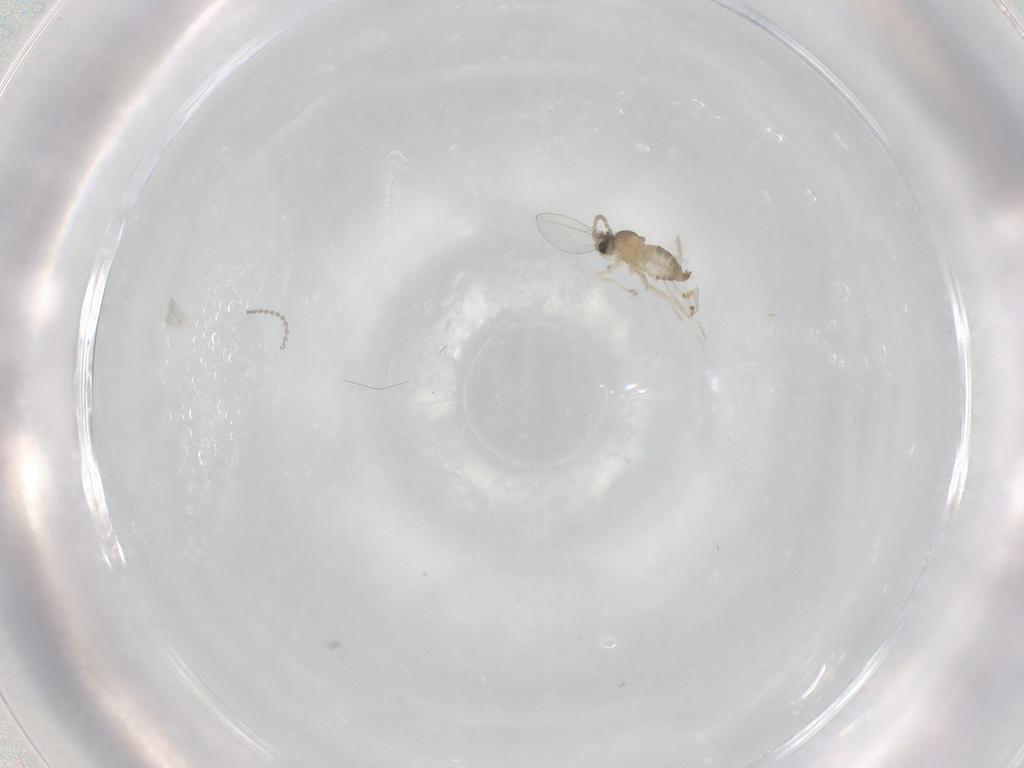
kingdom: Animalia
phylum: Arthropoda
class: Insecta
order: Diptera
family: Cecidomyiidae
